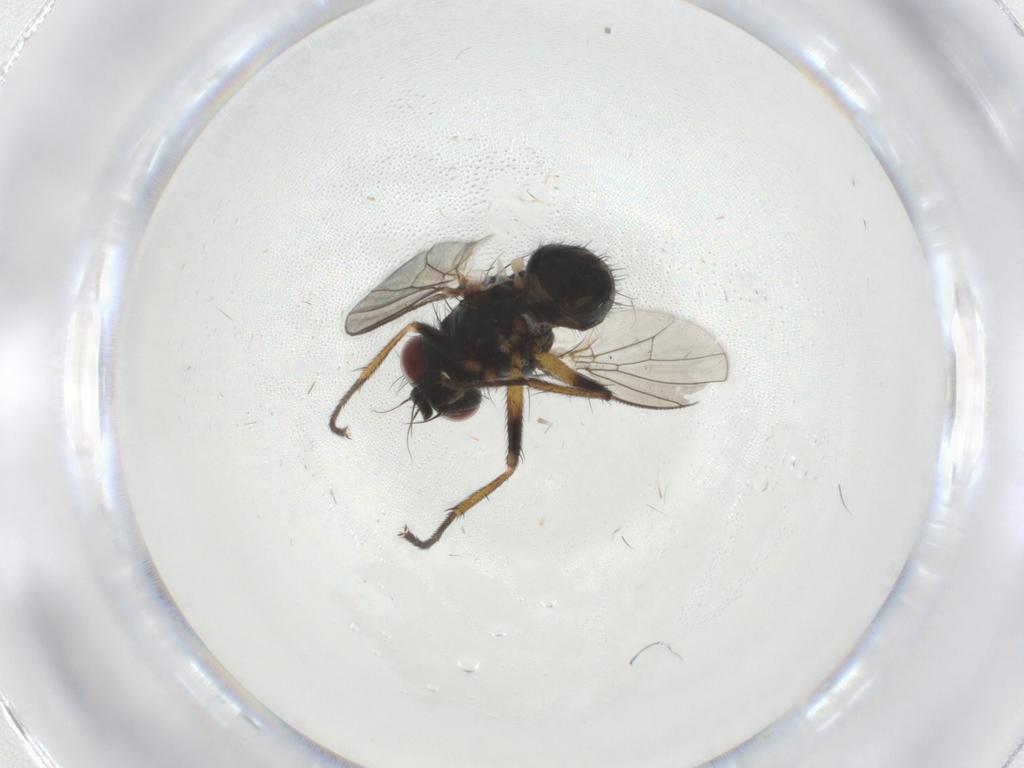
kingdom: Animalia
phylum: Arthropoda
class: Insecta
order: Diptera
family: Muscidae
